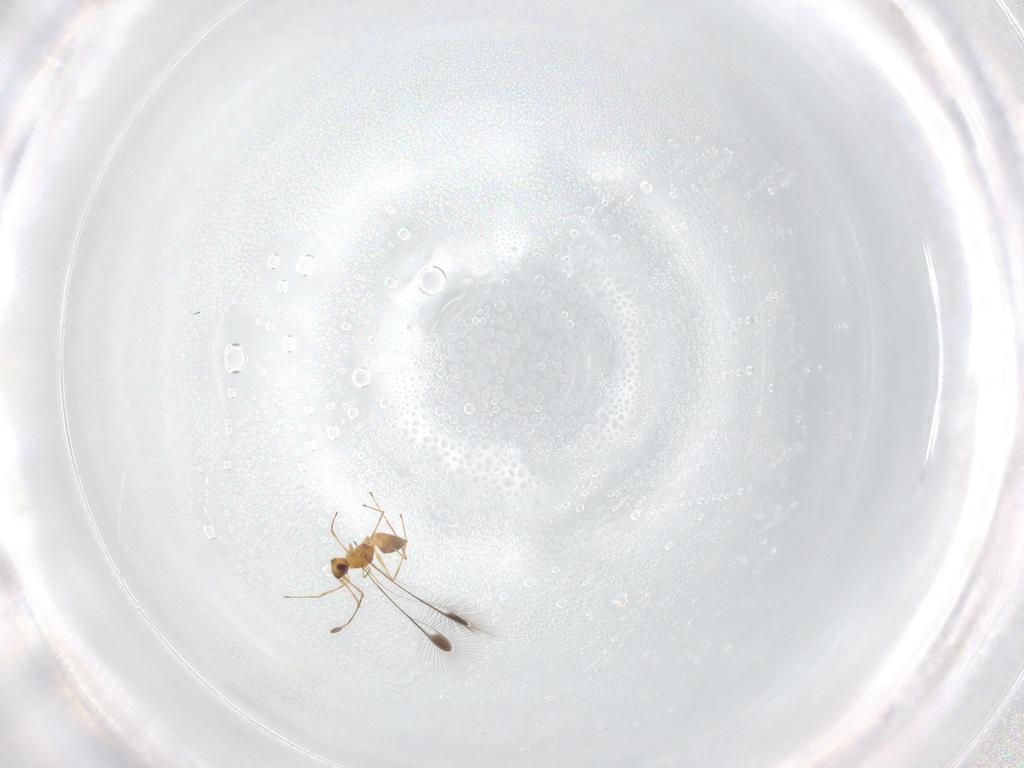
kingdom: Animalia
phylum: Arthropoda
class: Insecta
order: Hymenoptera
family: Mymaridae
